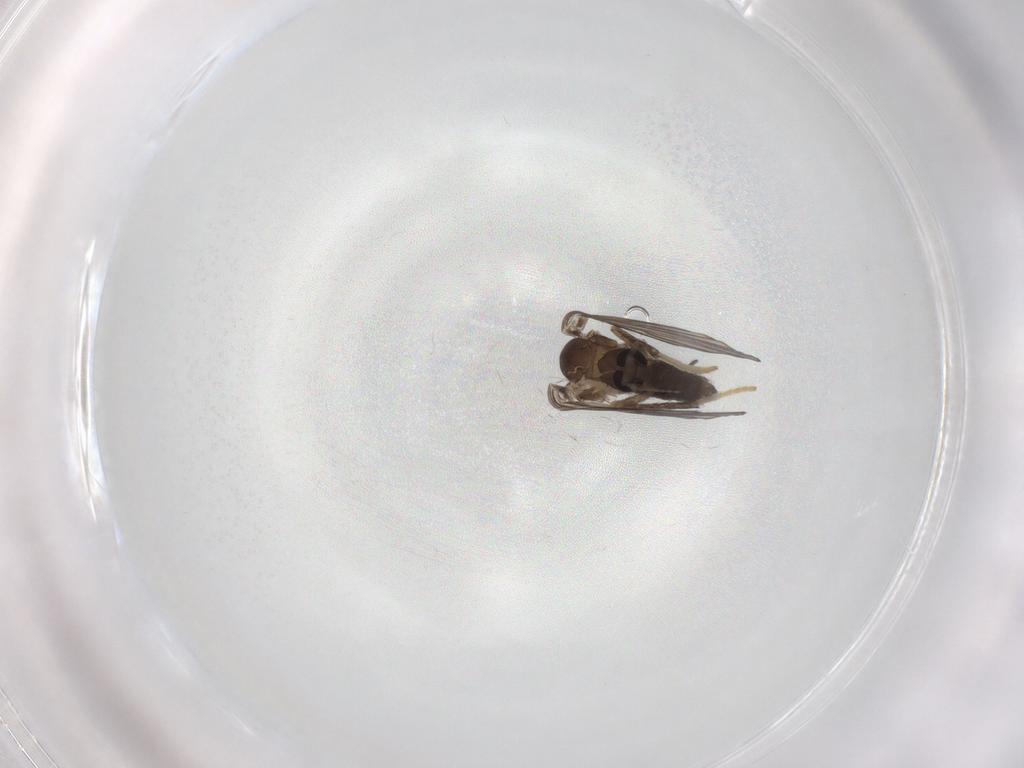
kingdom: Animalia
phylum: Arthropoda
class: Insecta
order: Diptera
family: Psychodidae
